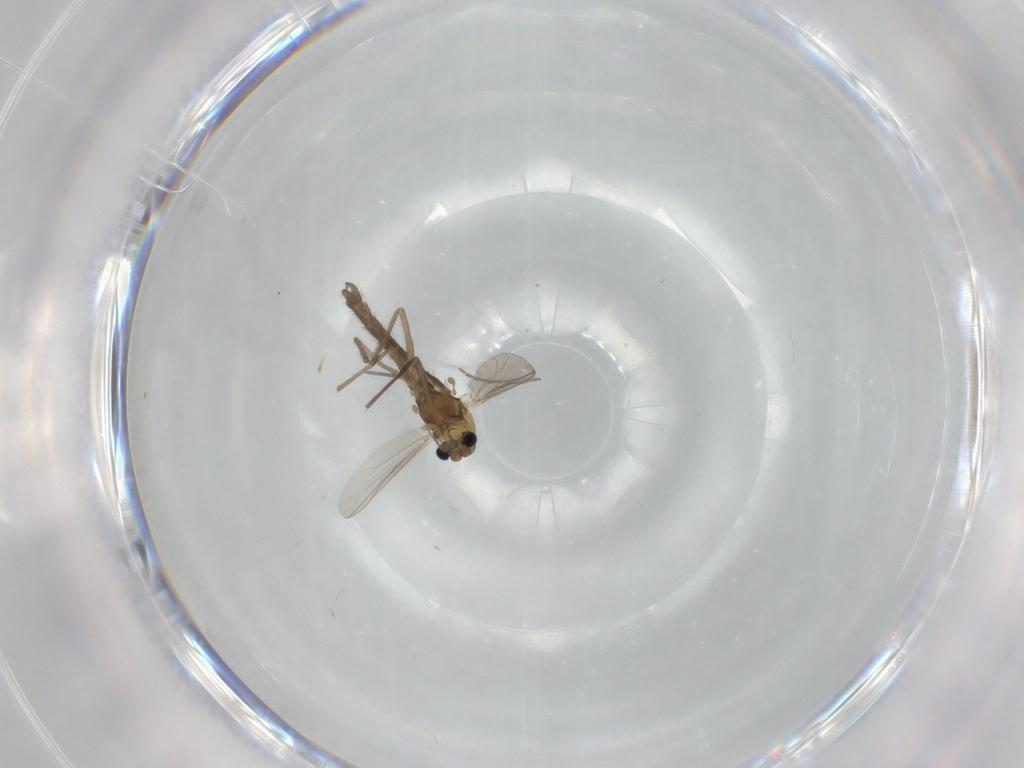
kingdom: Animalia
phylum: Arthropoda
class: Insecta
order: Diptera
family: Chironomidae
